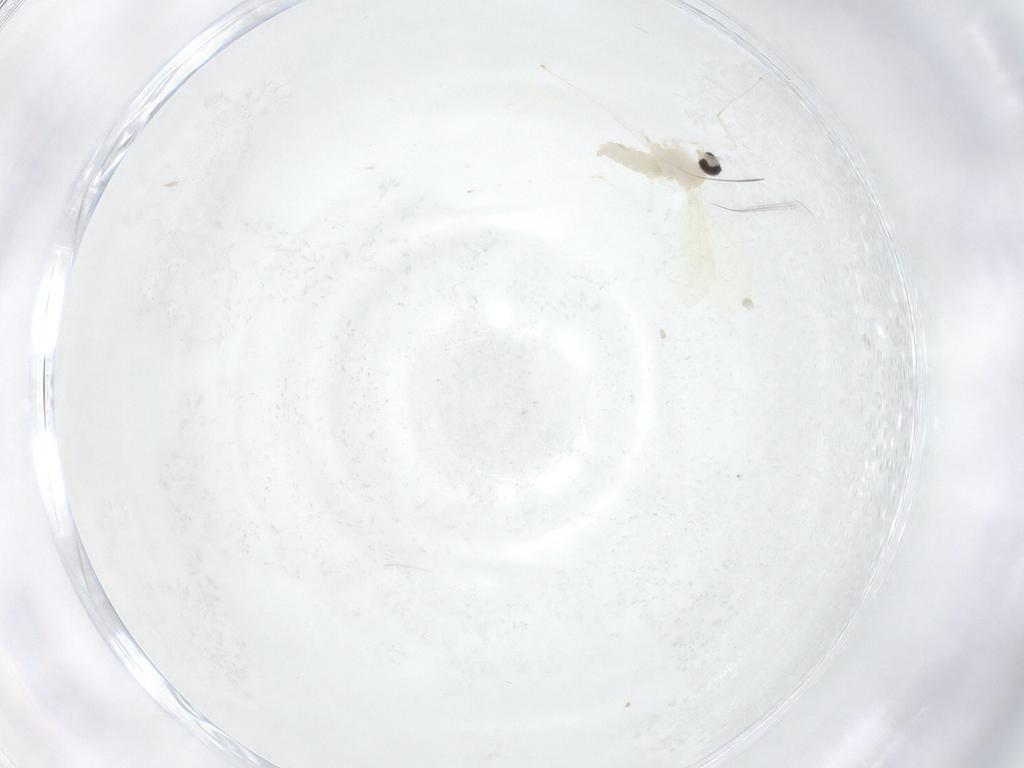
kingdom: Animalia
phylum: Arthropoda
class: Insecta
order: Diptera
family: Cecidomyiidae
